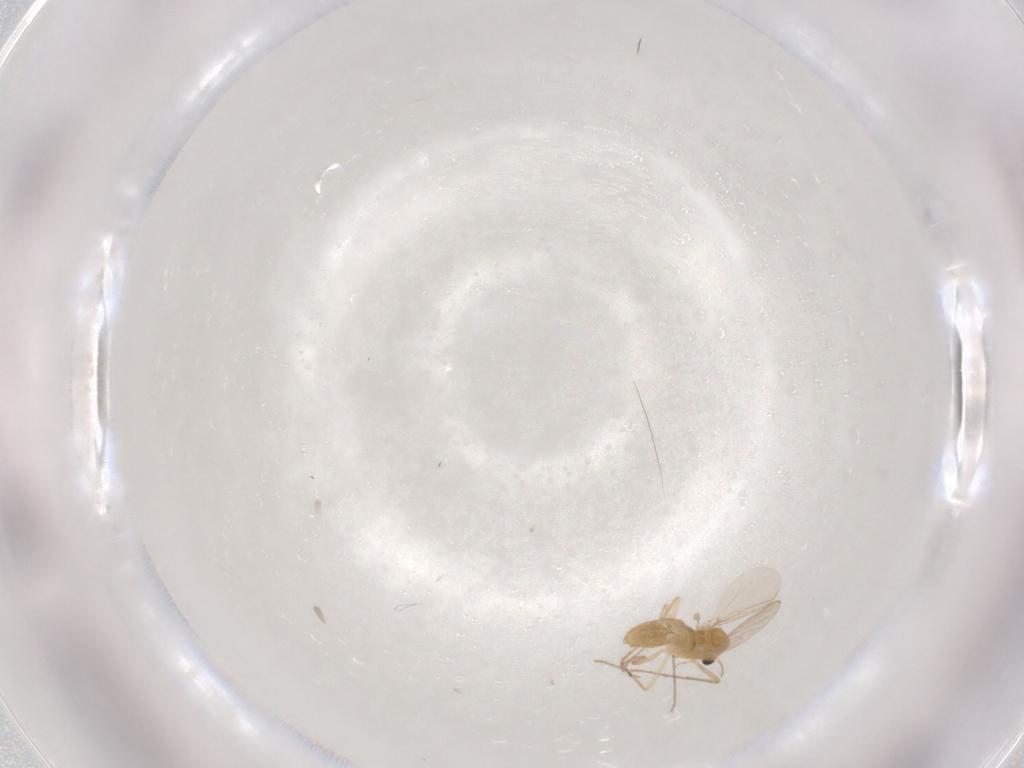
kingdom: Animalia
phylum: Arthropoda
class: Insecta
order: Diptera
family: Chironomidae
